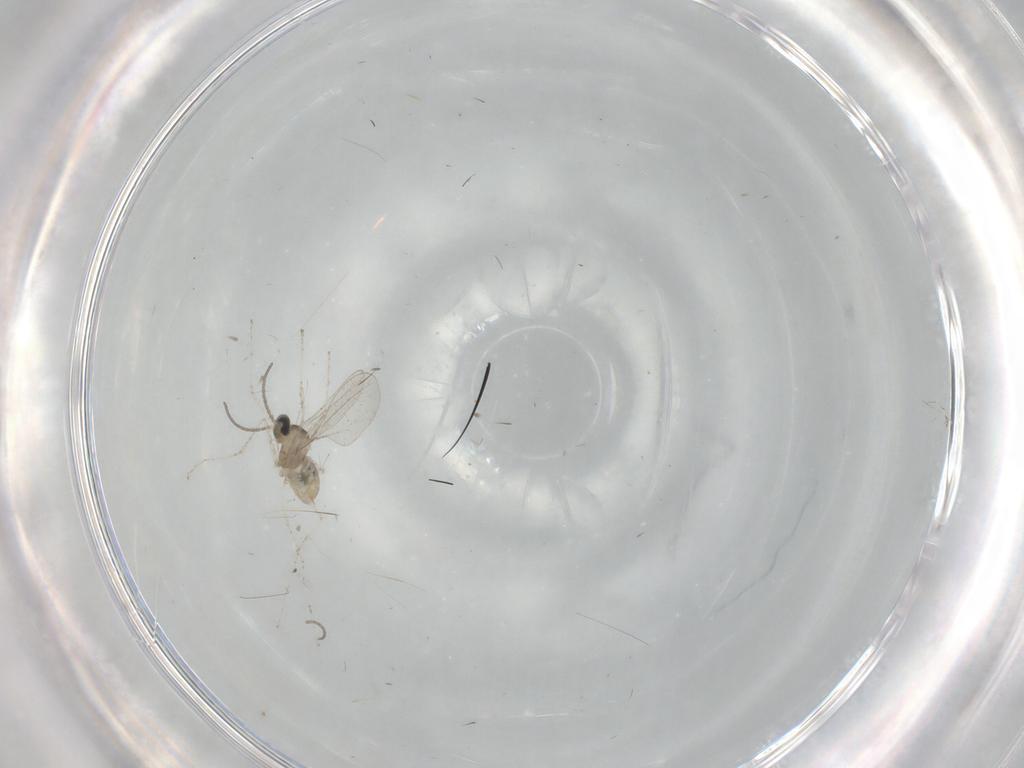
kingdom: Animalia
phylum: Arthropoda
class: Insecta
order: Diptera
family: Cecidomyiidae
